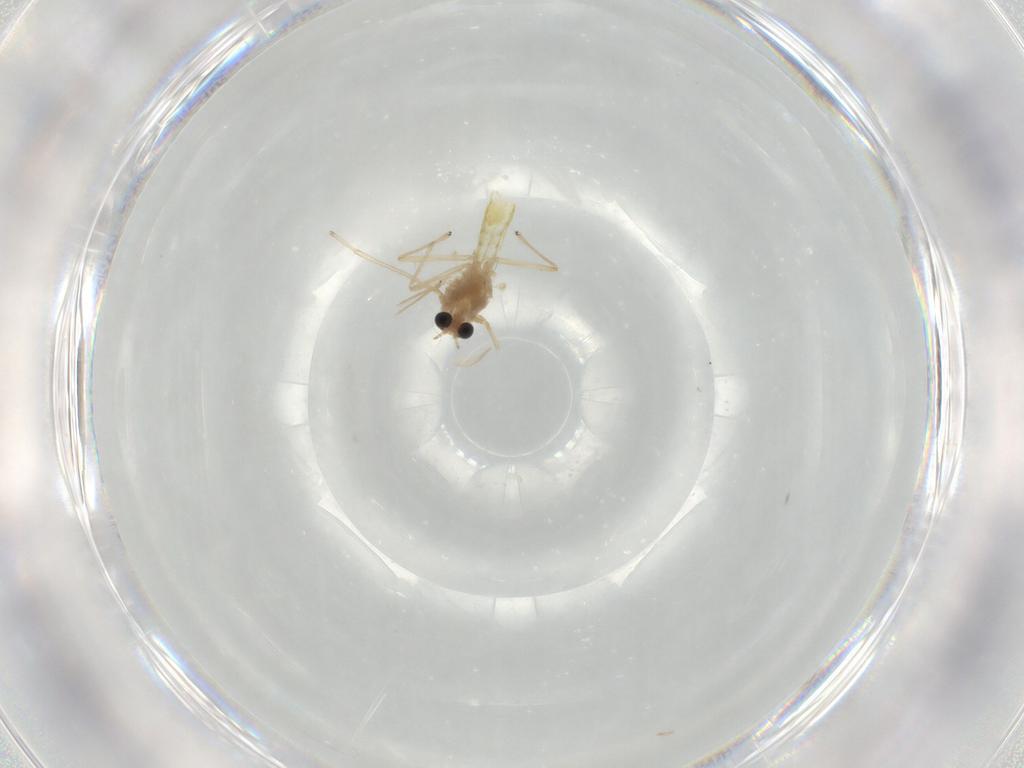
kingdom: Animalia
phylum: Arthropoda
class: Insecta
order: Diptera
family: Chironomidae
